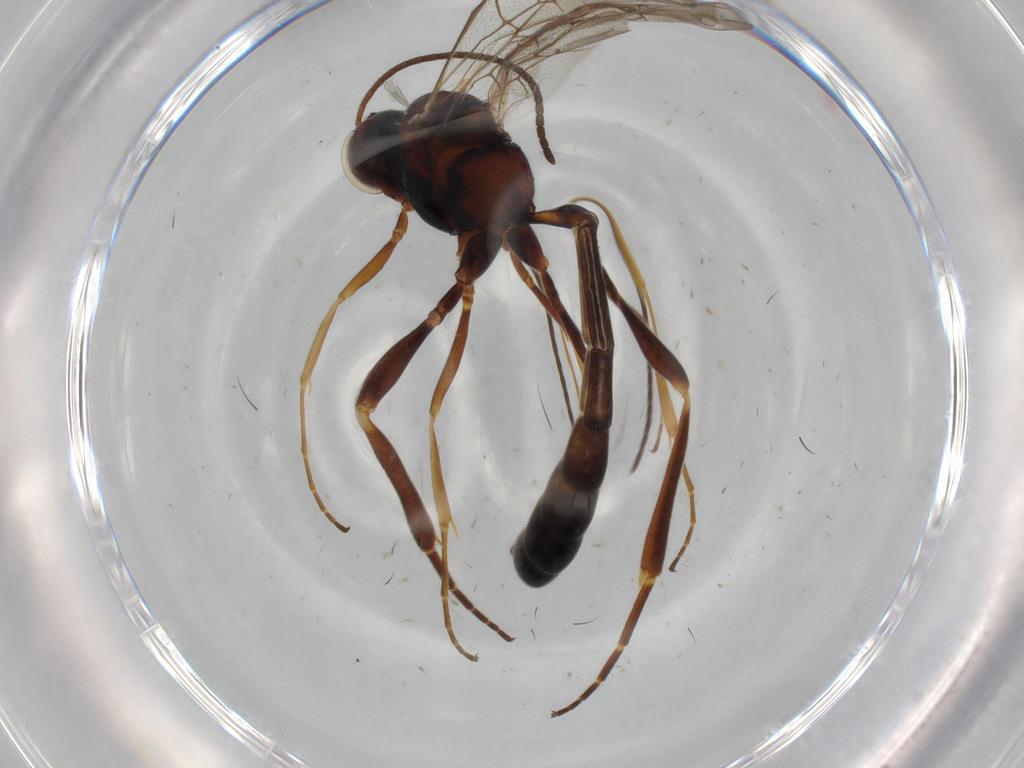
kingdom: Animalia
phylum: Arthropoda
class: Insecta
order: Hymenoptera
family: Ichneumonidae
